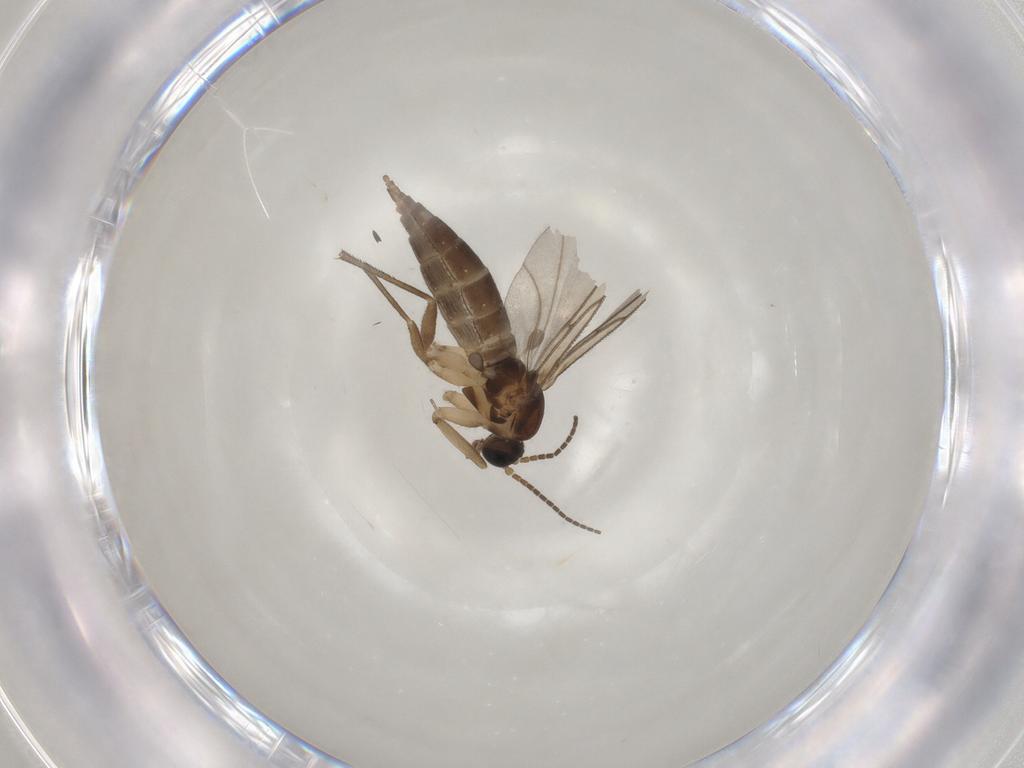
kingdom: Animalia
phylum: Arthropoda
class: Insecta
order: Diptera
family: Sciaridae
